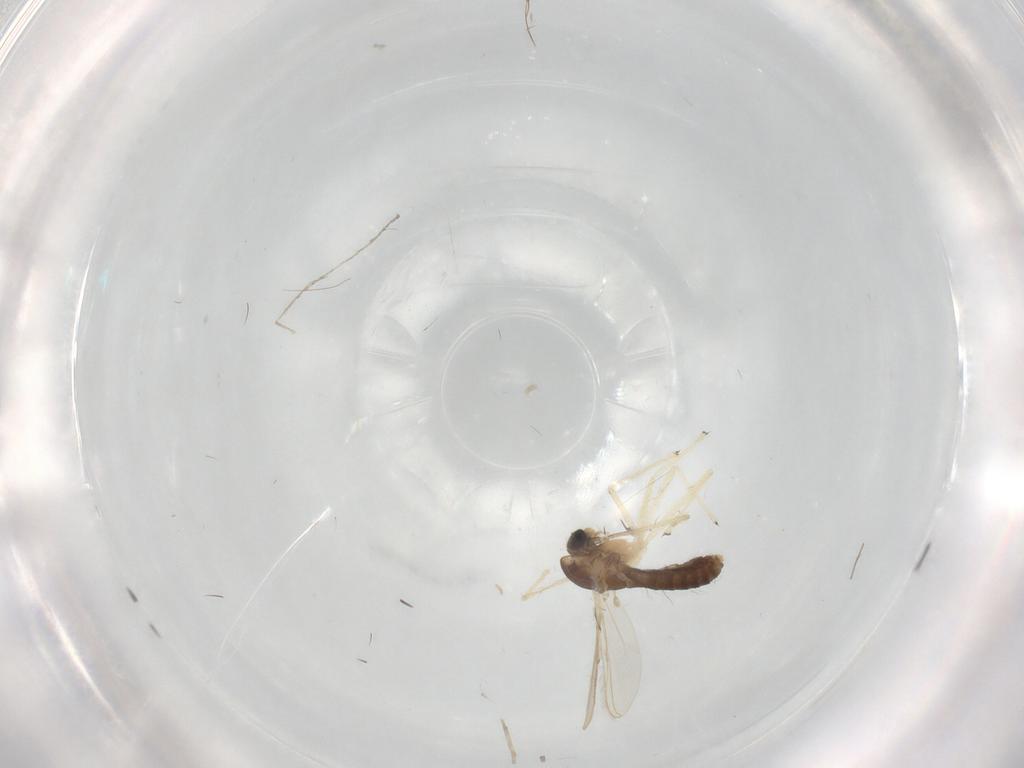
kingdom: Animalia
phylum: Arthropoda
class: Insecta
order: Diptera
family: Chironomidae
